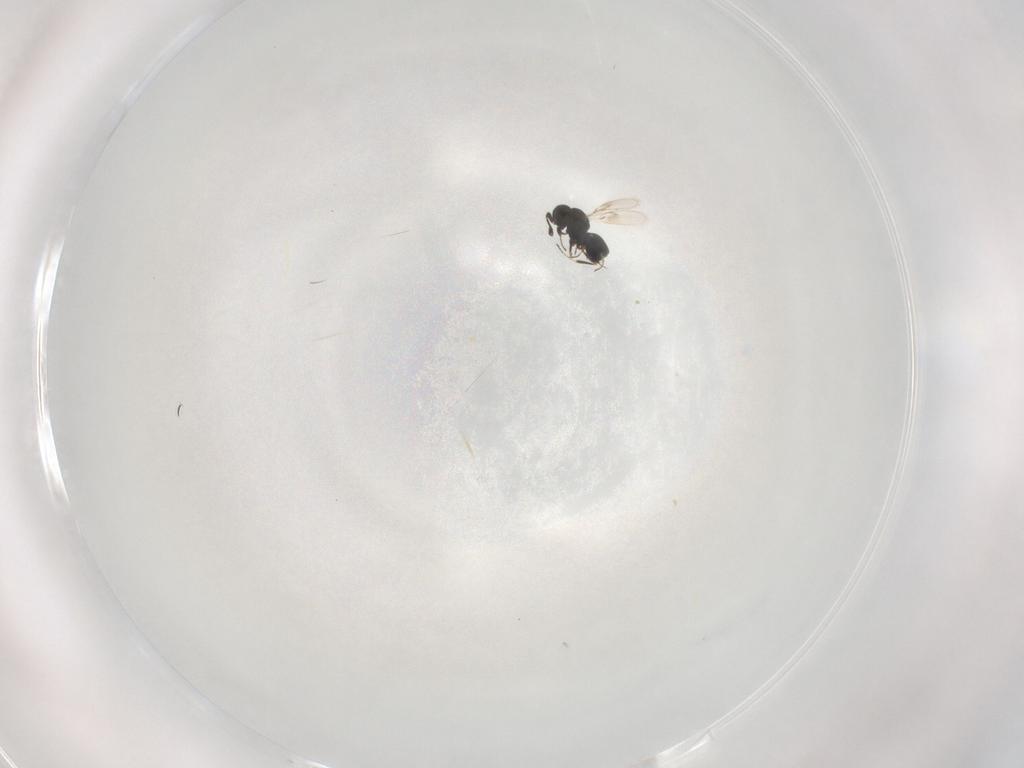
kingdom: Animalia
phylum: Arthropoda
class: Insecta
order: Hymenoptera
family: Scelionidae
